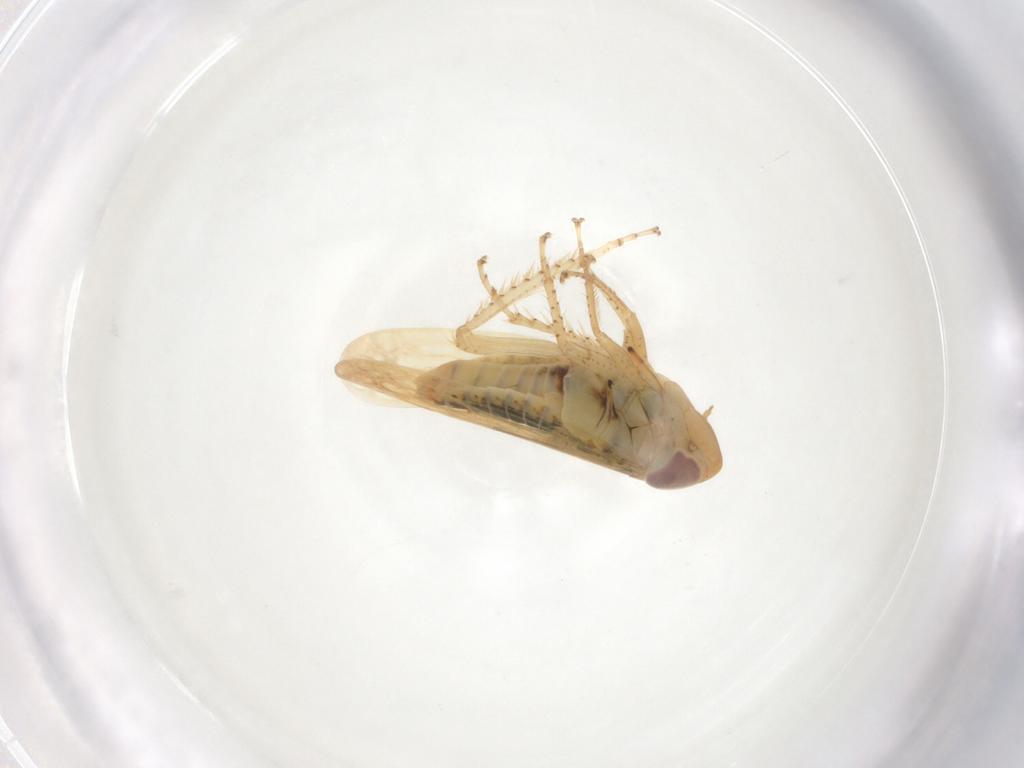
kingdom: Animalia
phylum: Arthropoda
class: Insecta
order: Hemiptera
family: Cicadellidae
